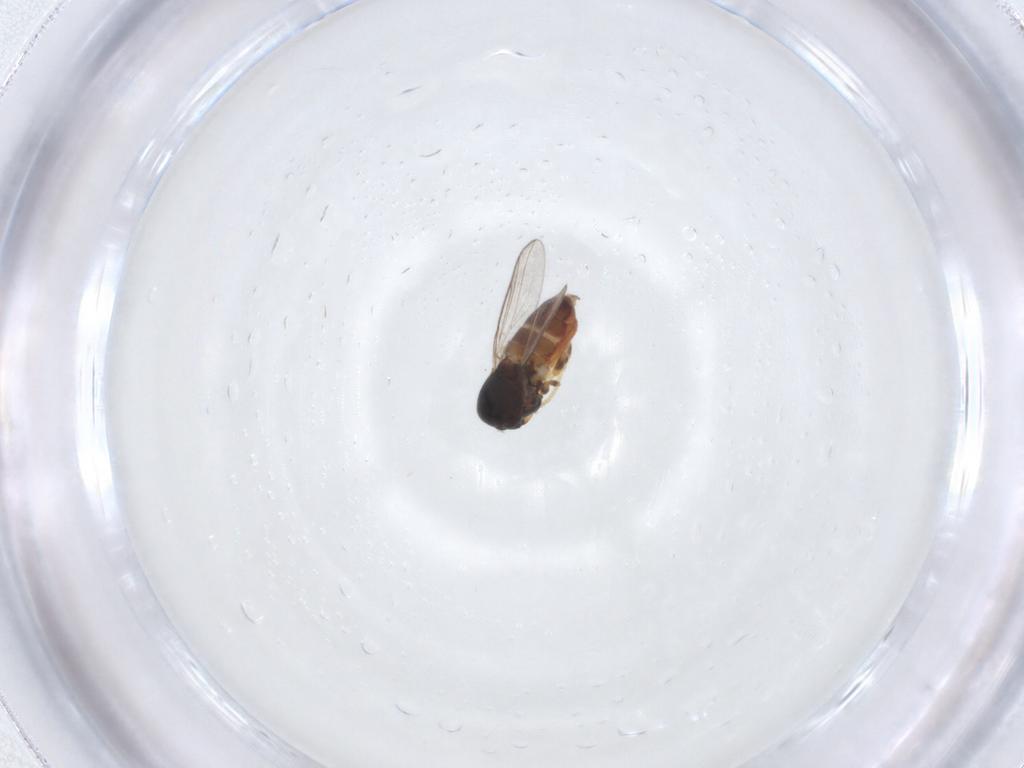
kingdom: Animalia
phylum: Arthropoda
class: Insecta
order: Diptera
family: Chloropidae
